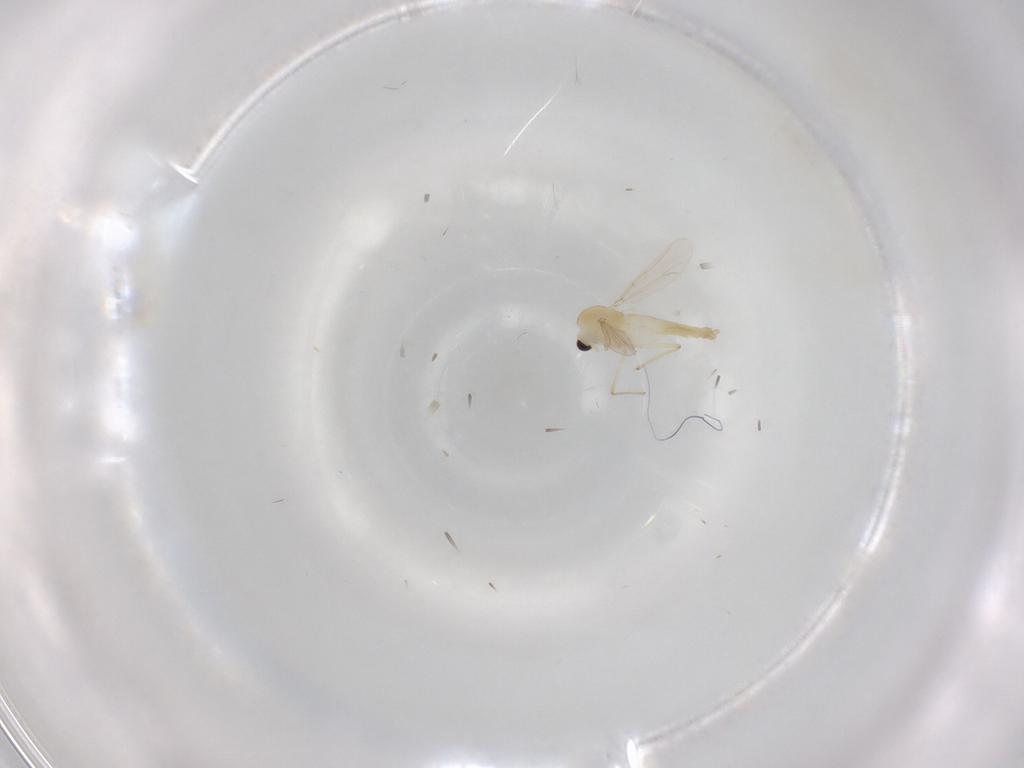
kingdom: Animalia
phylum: Arthropoda
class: Insecta
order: Diptera
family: Chironomidae
